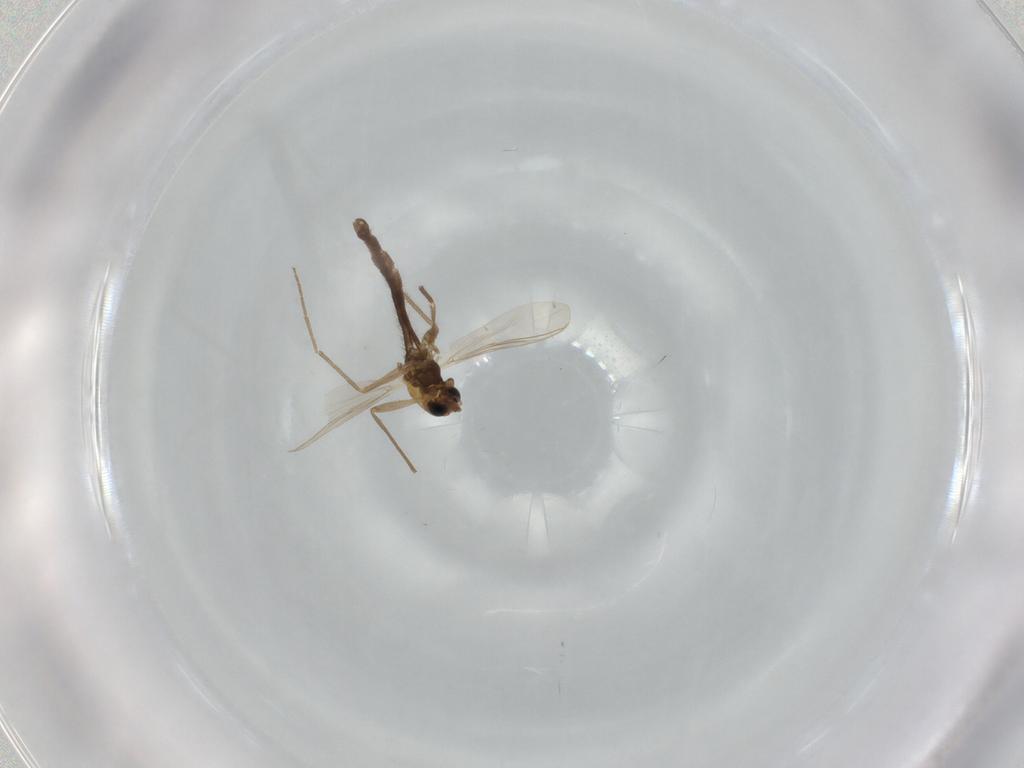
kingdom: Animalia
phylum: Arthropoda
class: Insecta
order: Diptera
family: Chironomidae
